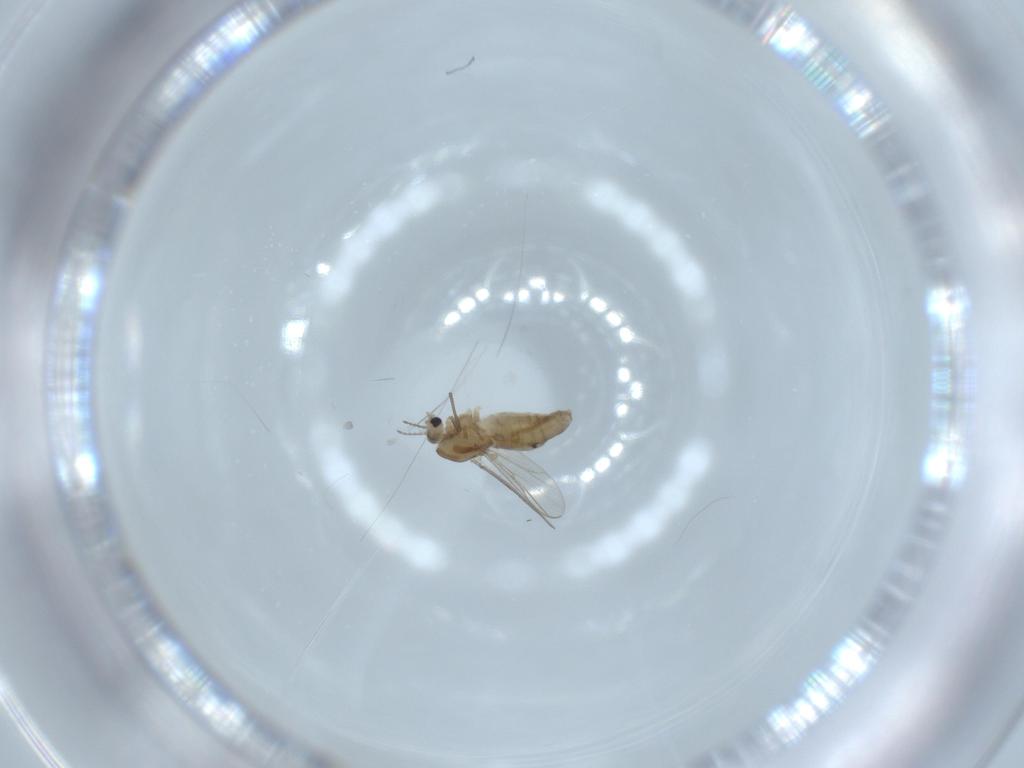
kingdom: Animalia
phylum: Arthropoda
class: Insecta
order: Diptera
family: Chironomidae
